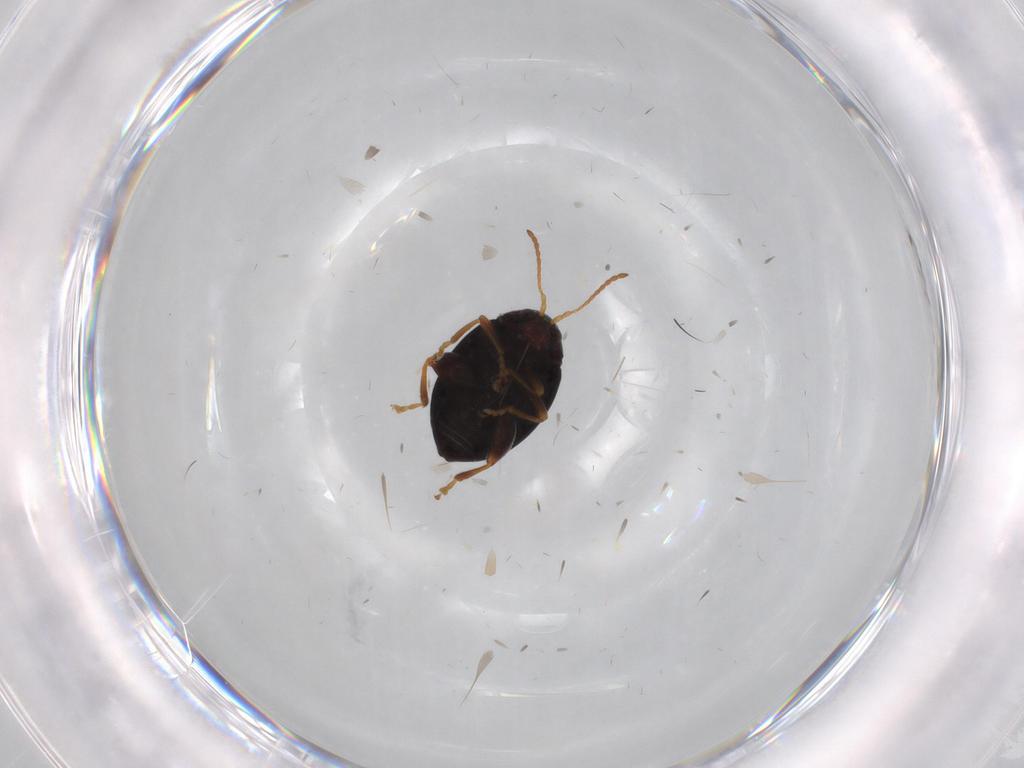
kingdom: Animalia
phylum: Arthropoda
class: Insecta
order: Coleoptera
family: Chrysomelidae
